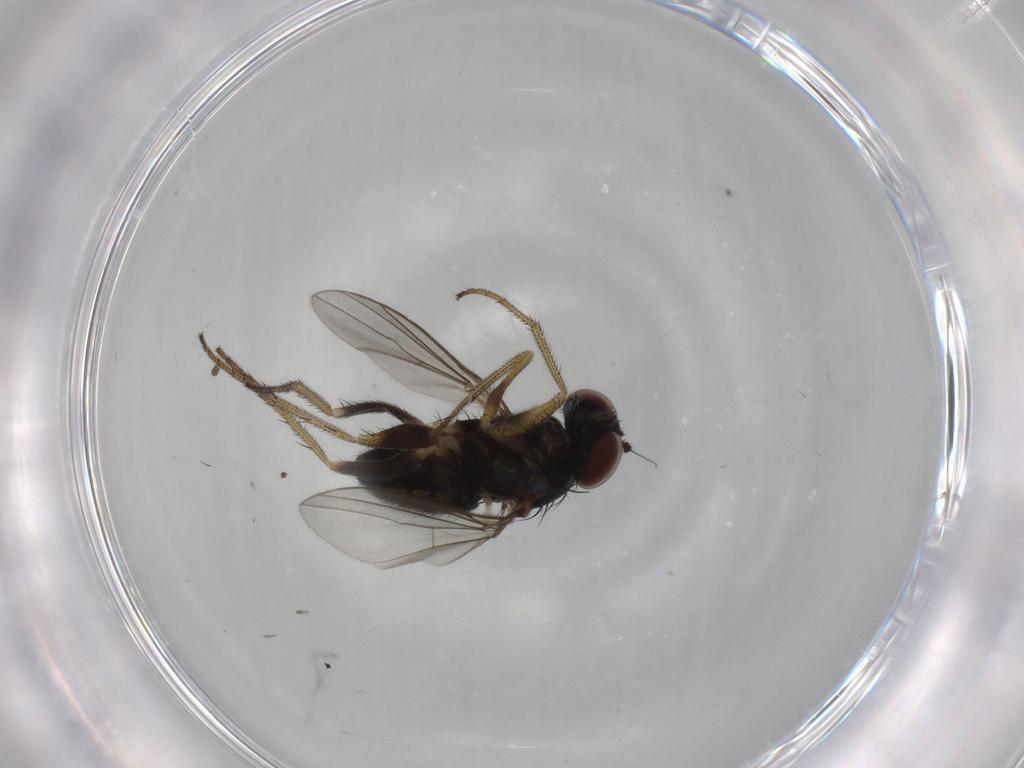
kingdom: Animalia
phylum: Arthropoda
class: Insecta
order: Diptera
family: Dolichopodidae
